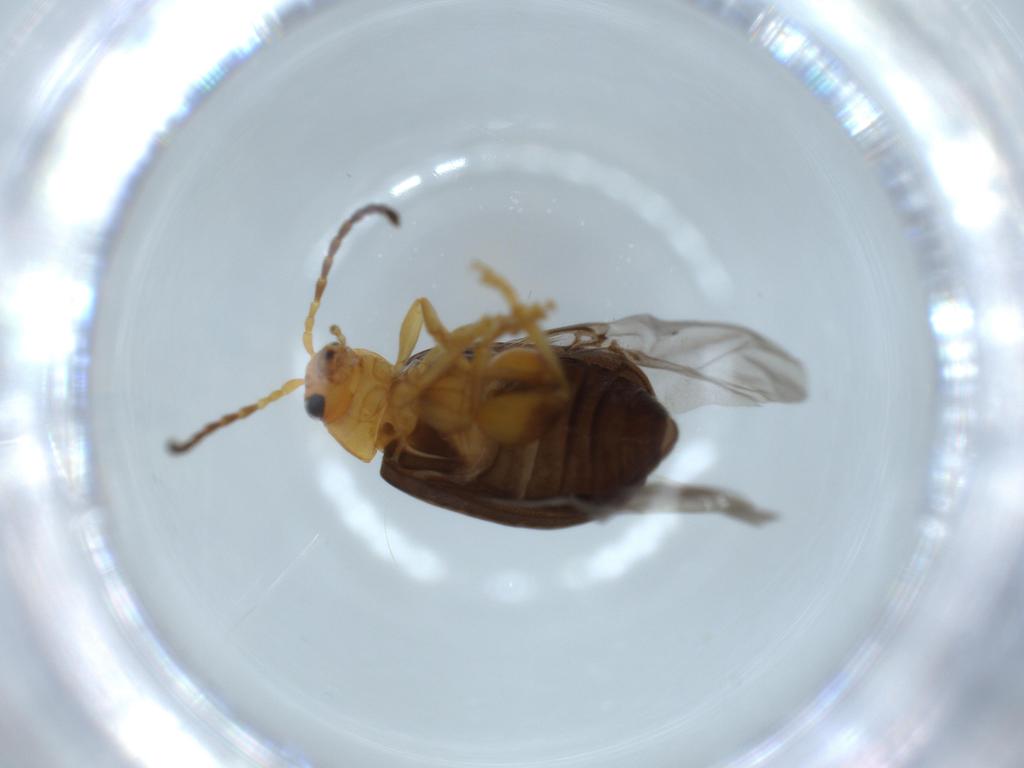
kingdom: Animalia
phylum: Arthropoda
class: Insecta
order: Coleoptera
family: Chrysomelidae
